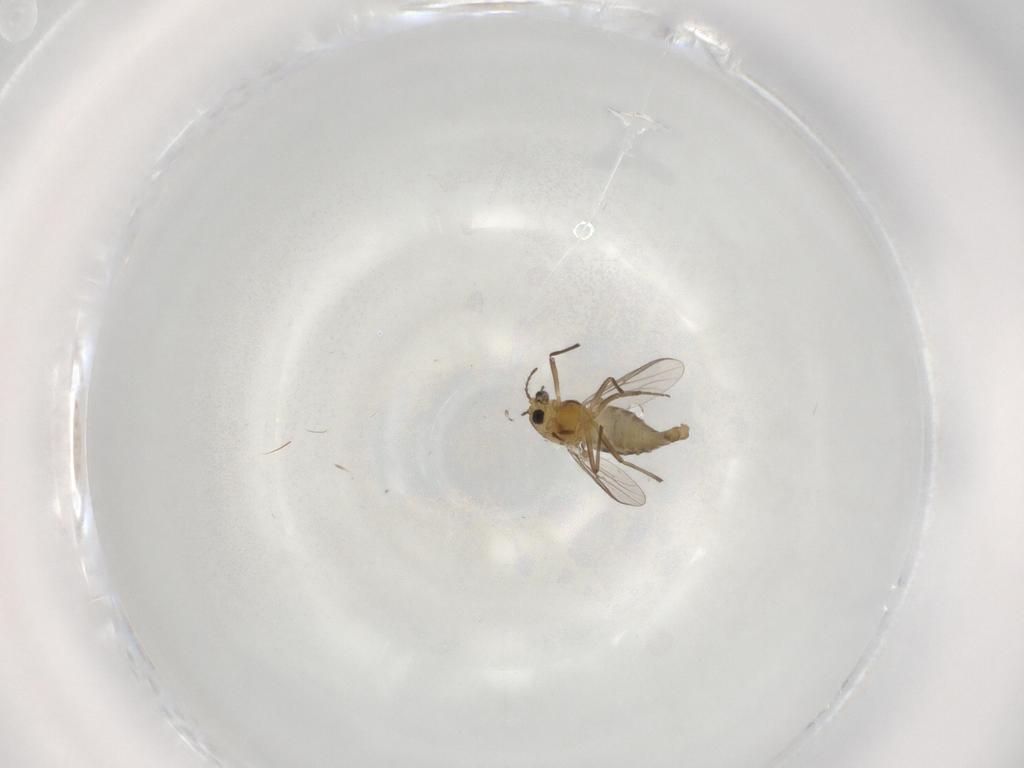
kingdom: Animalia
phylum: Arthropoda
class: Insecta
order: Diptera
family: Chironomidae
